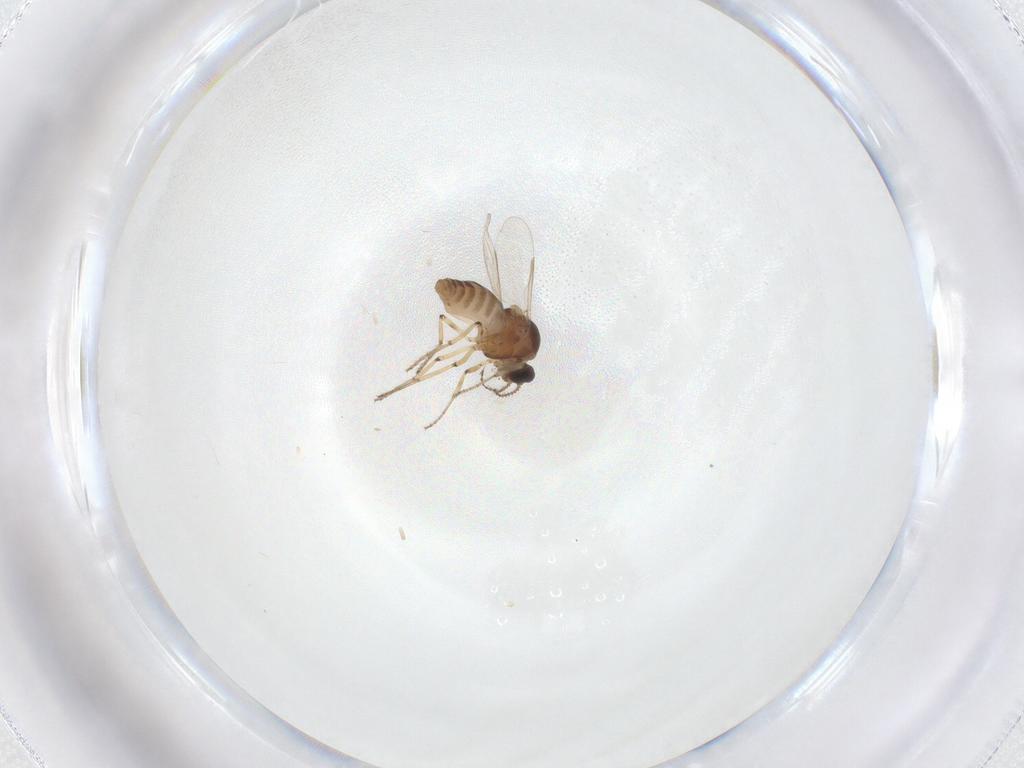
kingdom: Animalia
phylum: Arthropoda
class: Insecta
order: Diptera
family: Ceratopogonidae
